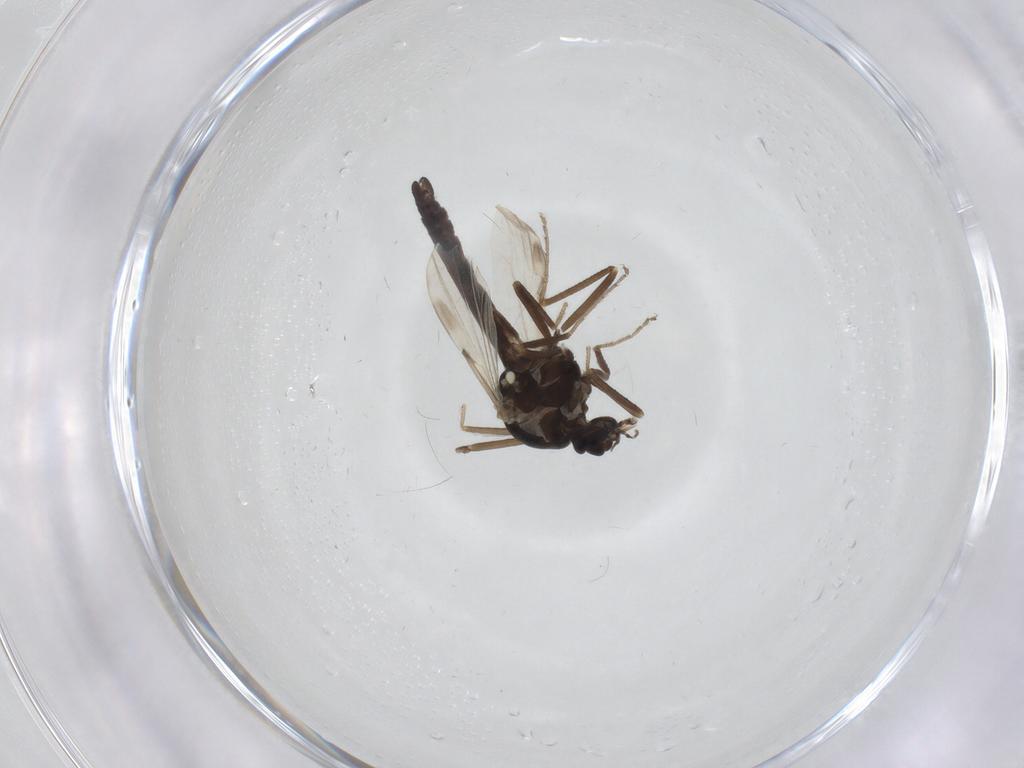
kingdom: Animalia
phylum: Arthropoda
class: Insecta
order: Diptera
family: Ceratopogonidae
